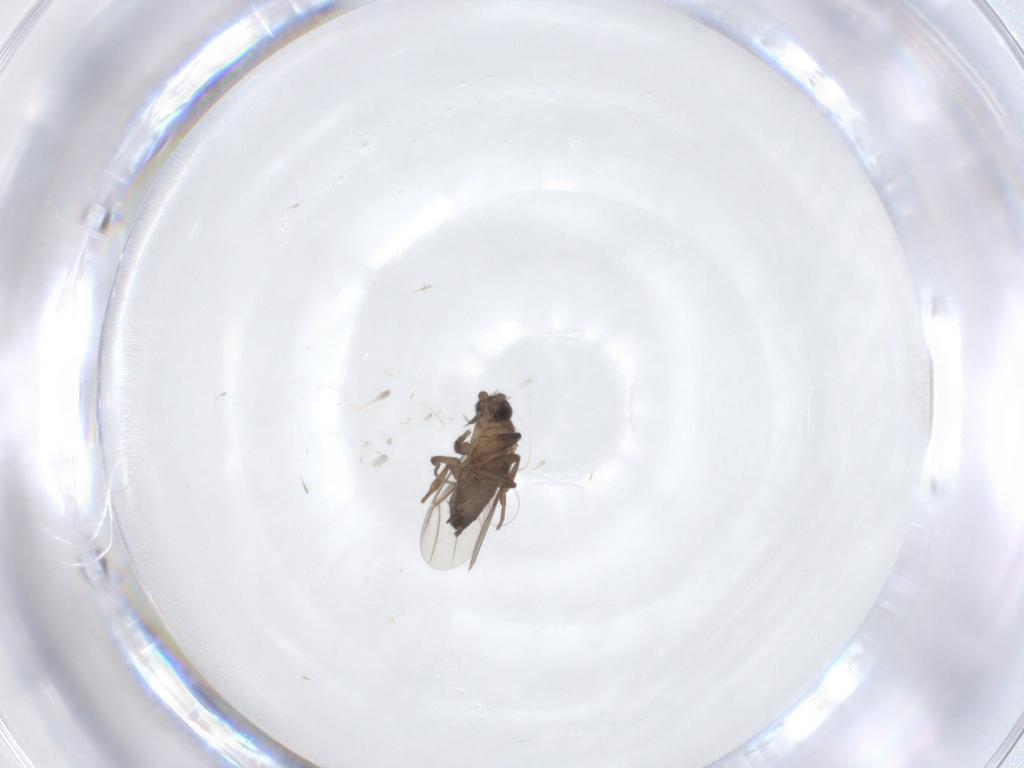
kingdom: Animalia
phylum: Arthropoda
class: Insecta
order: Diptera
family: Phoridae
